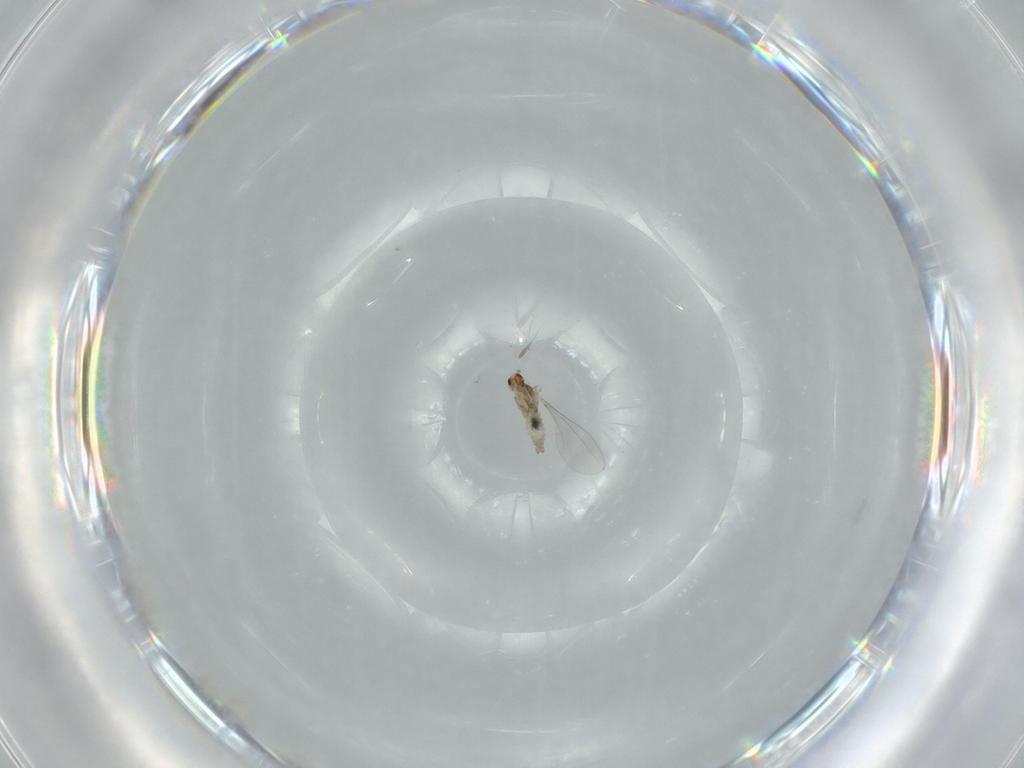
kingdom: Animalia
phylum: Arthropoda
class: Insecta
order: Diptera
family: Cecidomyiidae
